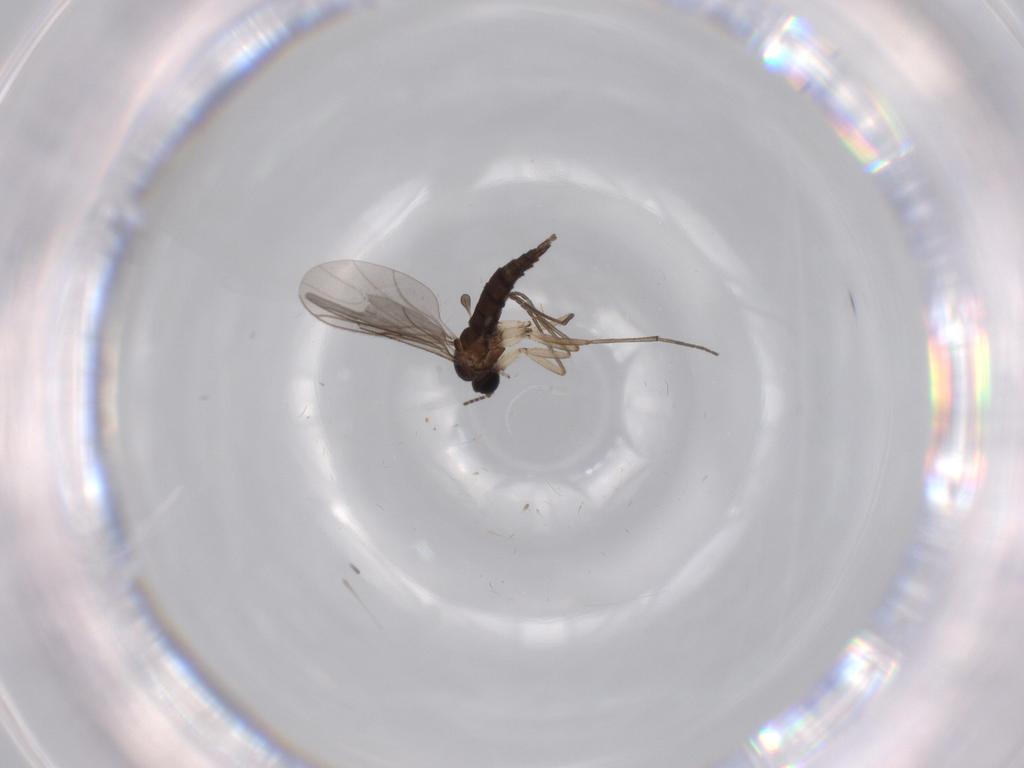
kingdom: Animalia
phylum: Arthropoda
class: Insecta
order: Diptera
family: Sciaridae
